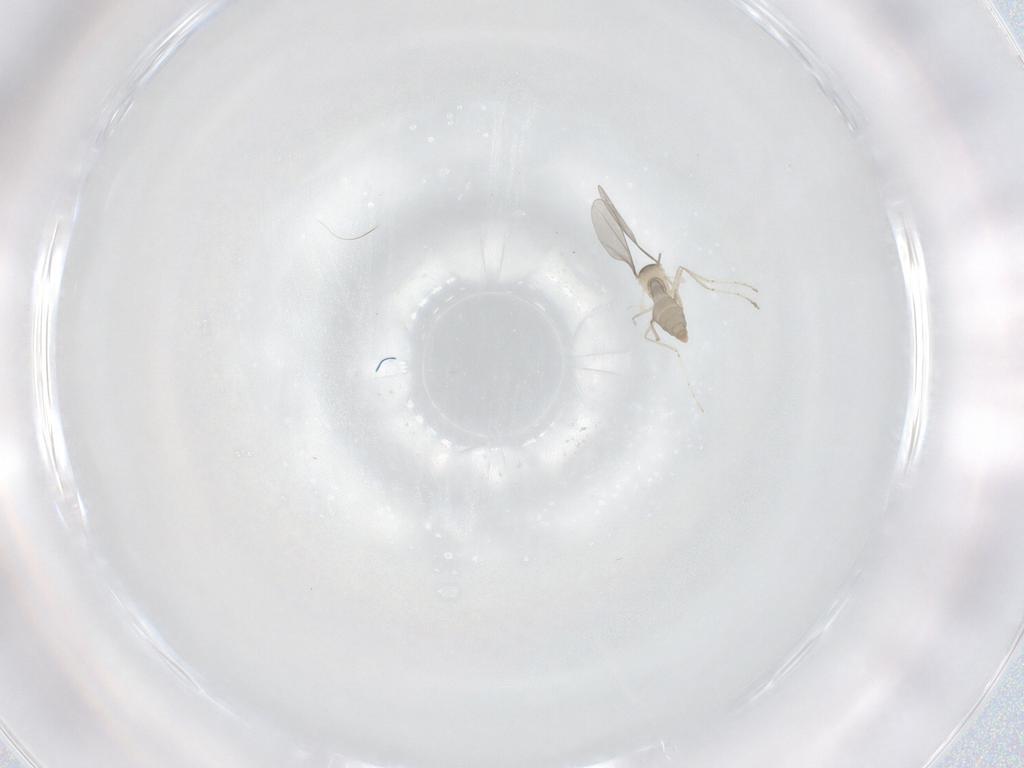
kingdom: Animalia
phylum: Arthropoda
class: Insecta
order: Diptera
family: Cecidomyiidae
